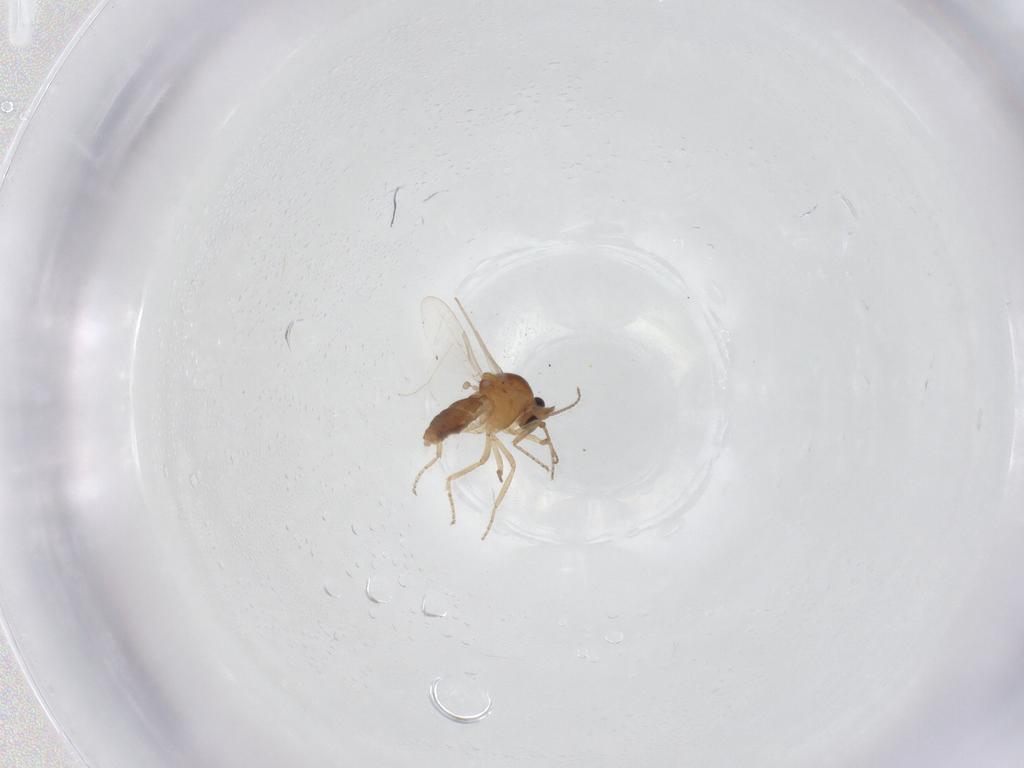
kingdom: Animalia
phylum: Arthropoda
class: Insecta
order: Diptera
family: Ceratopogonidae
